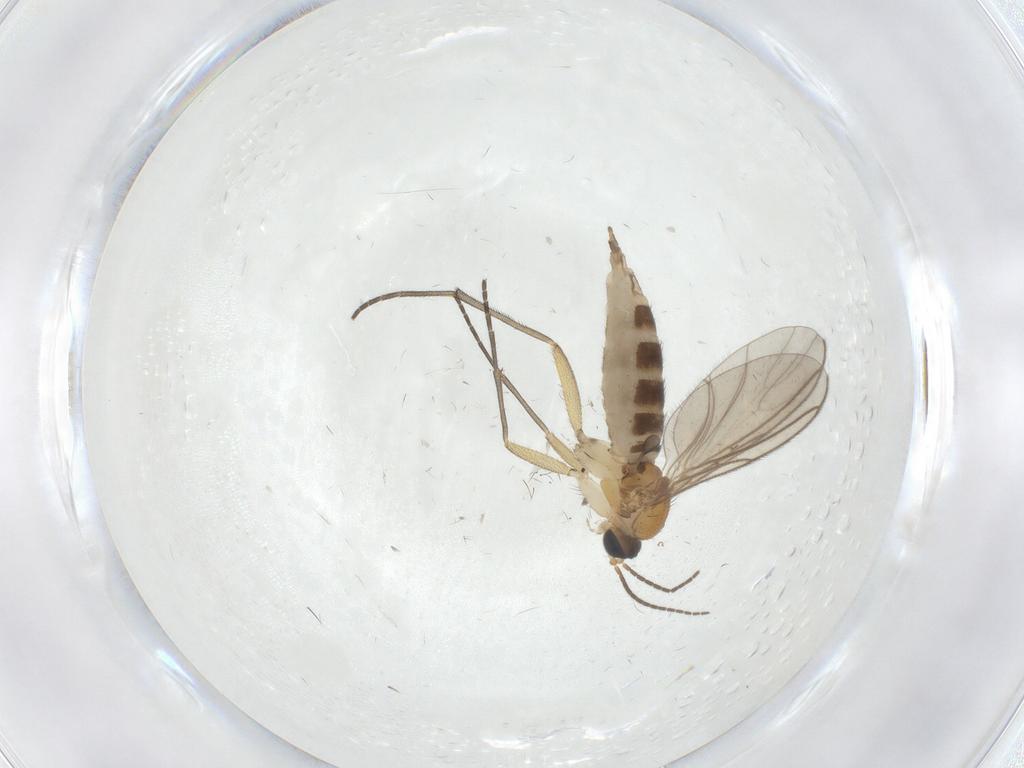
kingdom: Animalia
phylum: Arthropoda
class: Insecta
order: Diptera
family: Sciaridae
